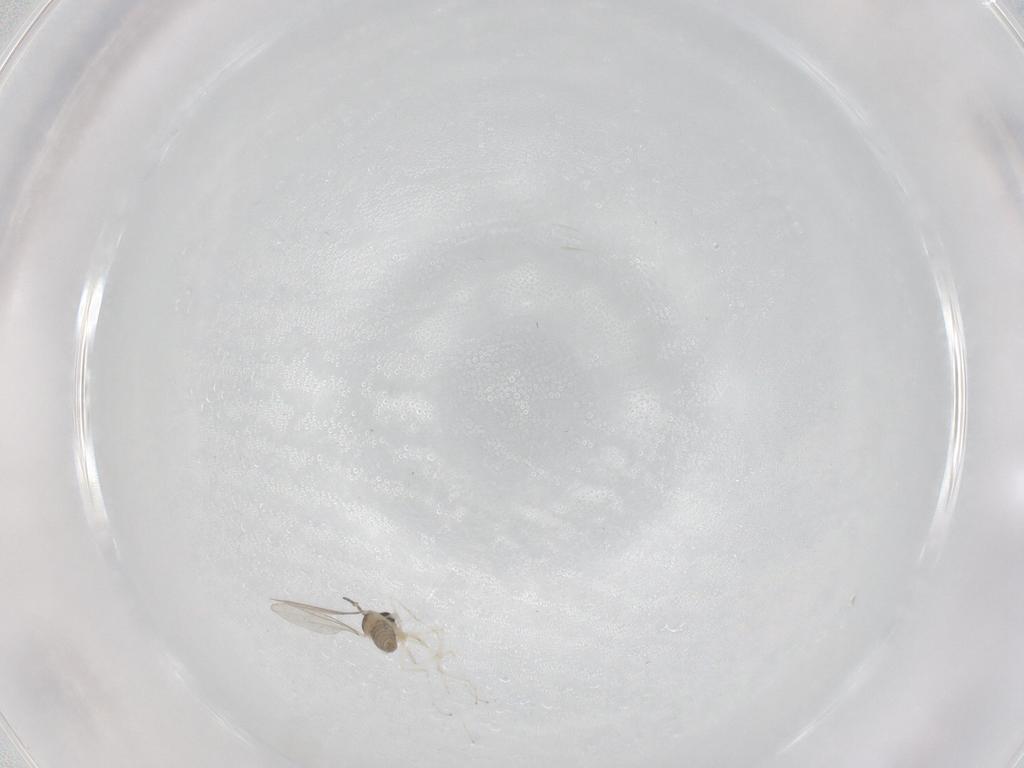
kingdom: Animalia
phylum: Arthropoda
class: Insecta
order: Diptera
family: Cecidomyiidae
